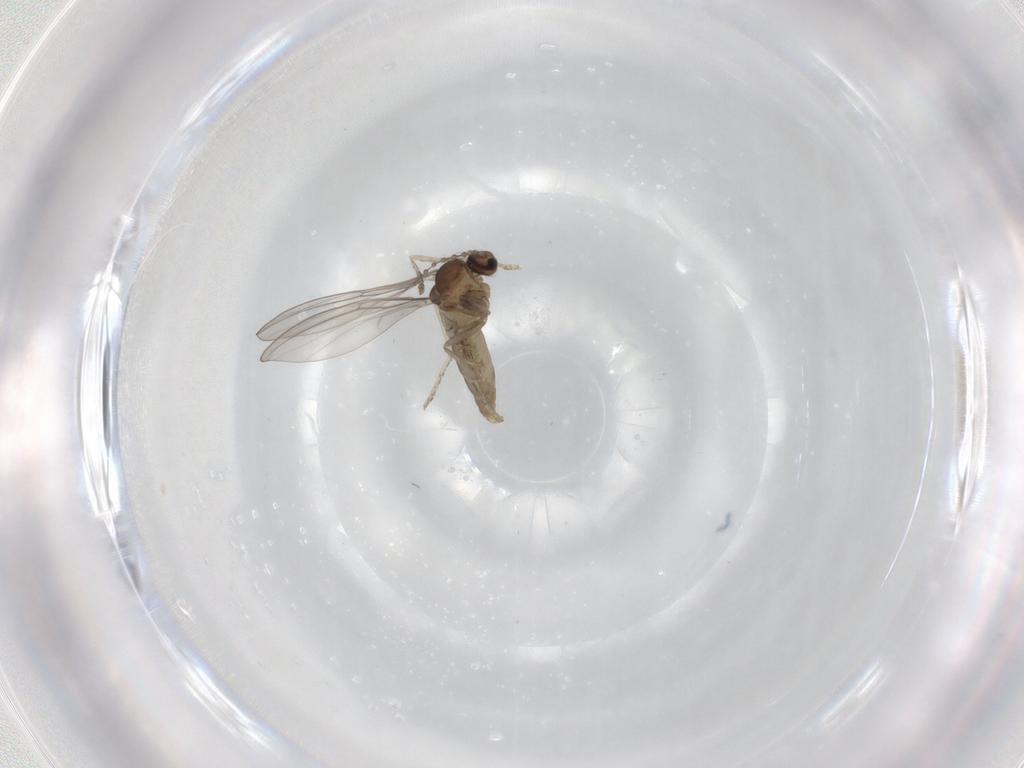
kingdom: Animalia
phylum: Arthropoda
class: Insecta
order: Diptera
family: Cecidomyiidae
